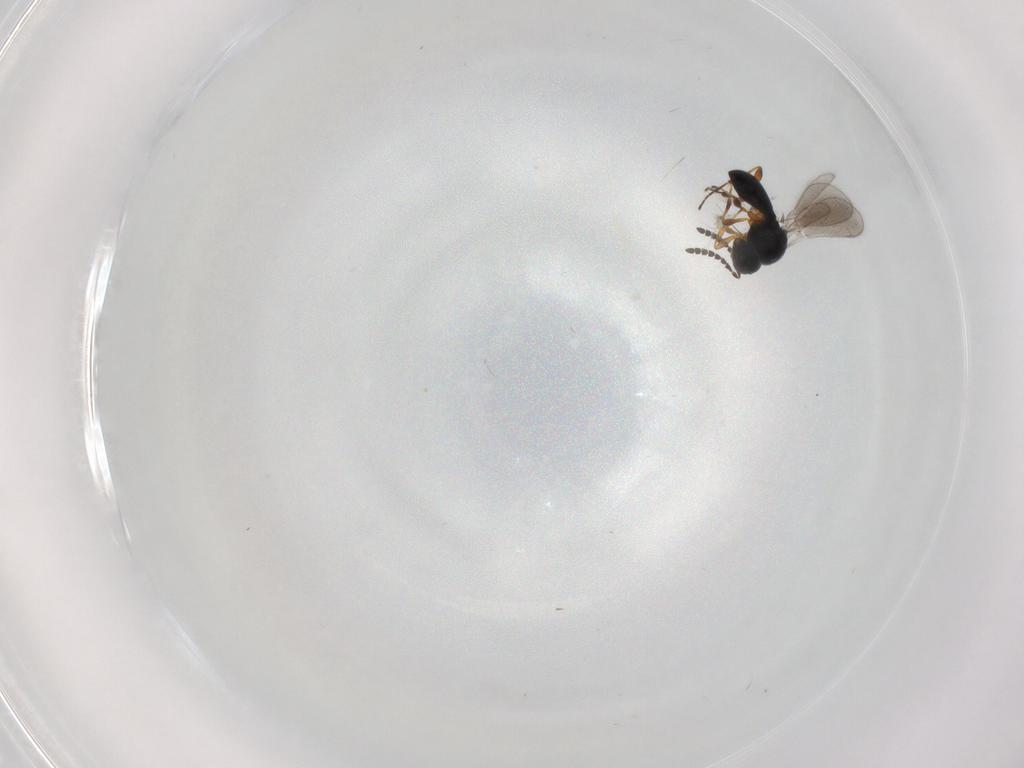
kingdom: Animalia
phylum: Arthropoda
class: Insecta
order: Hymenoptera
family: Platygastridae
